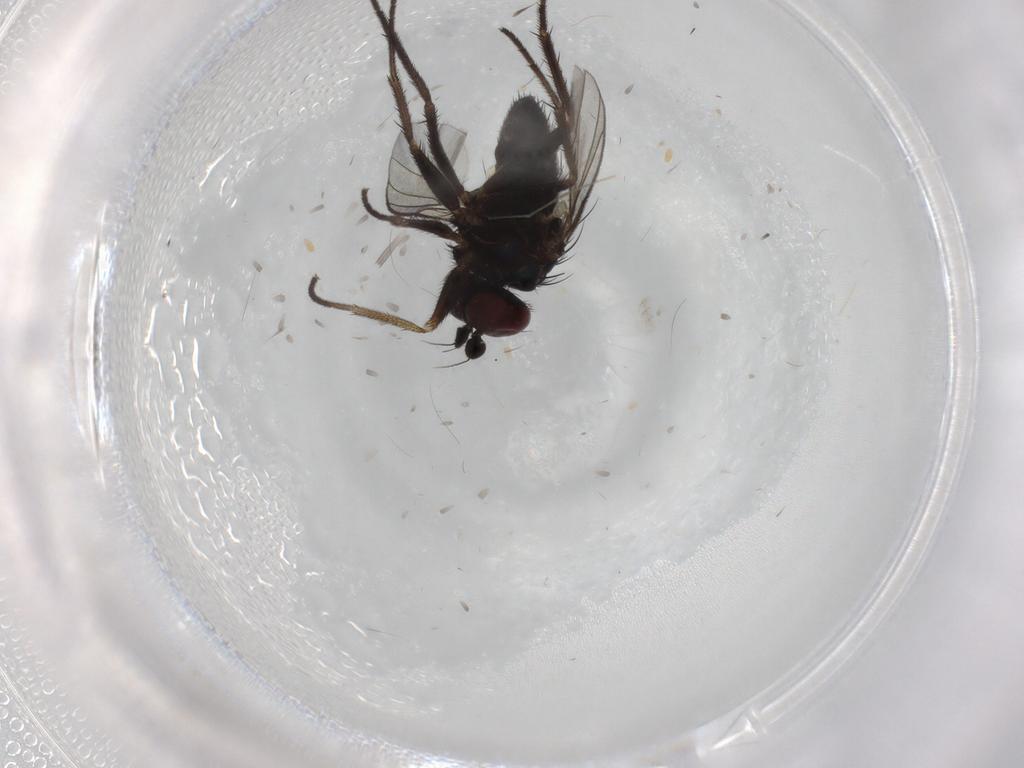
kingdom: Animalia
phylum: Arthropoda
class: Insecta
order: Diptera
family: Dolichopodidae
